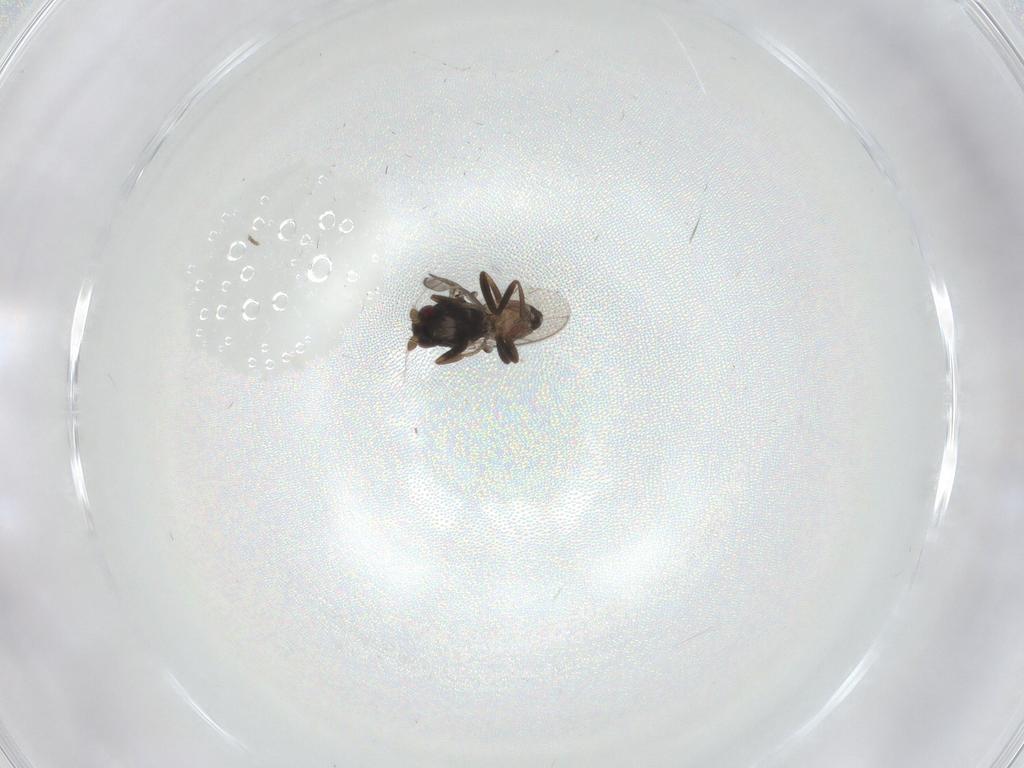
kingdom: Animalia
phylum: Arthropoda
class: Insecta
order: Diptera
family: Sphaeroceridae
